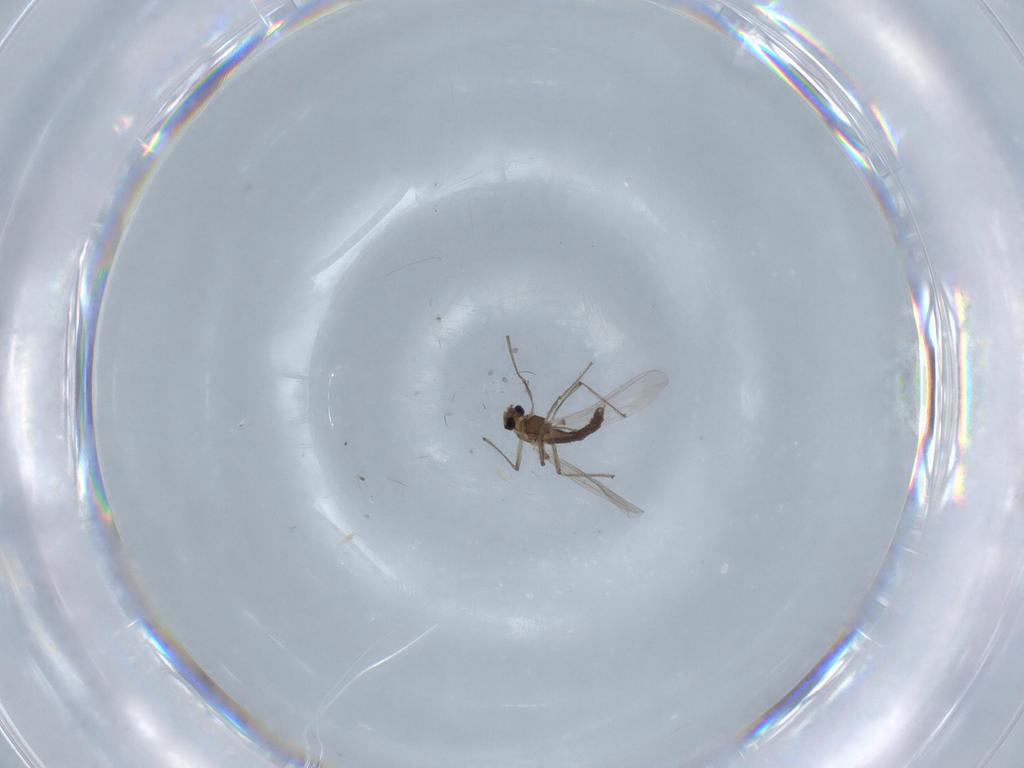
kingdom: Animalia
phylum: Arthropoda
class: Insecta
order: Diptera
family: Chironomidae
